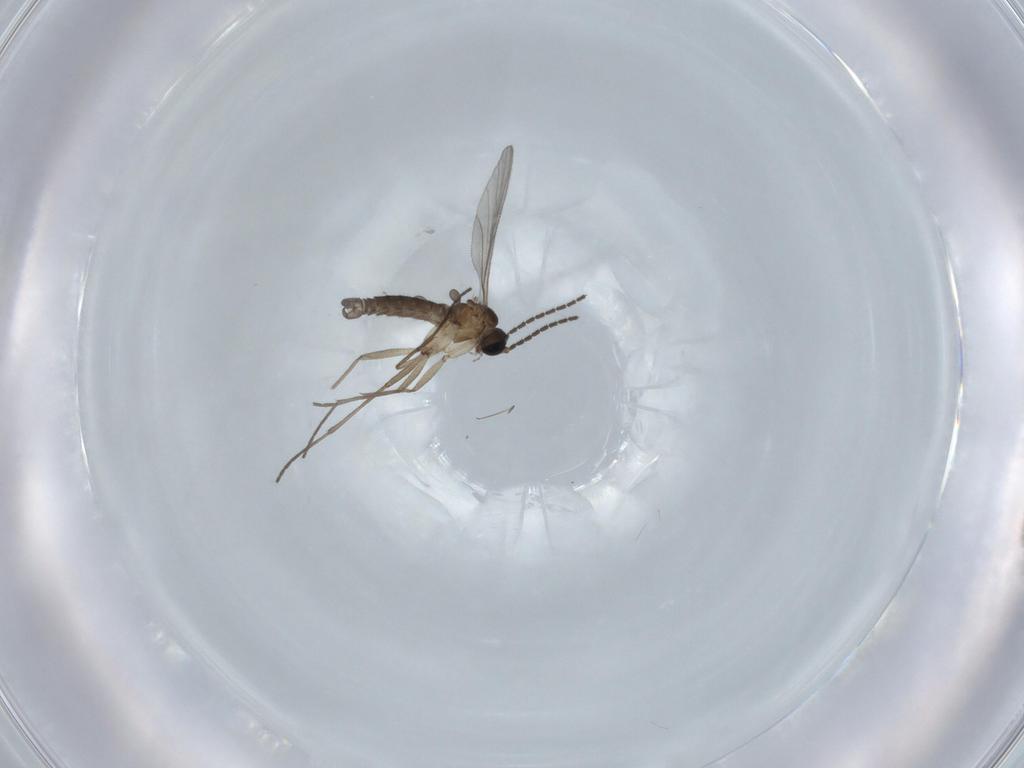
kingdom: Animalia
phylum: Arthropoda
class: Insecta
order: Diptera
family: Sciaridae
